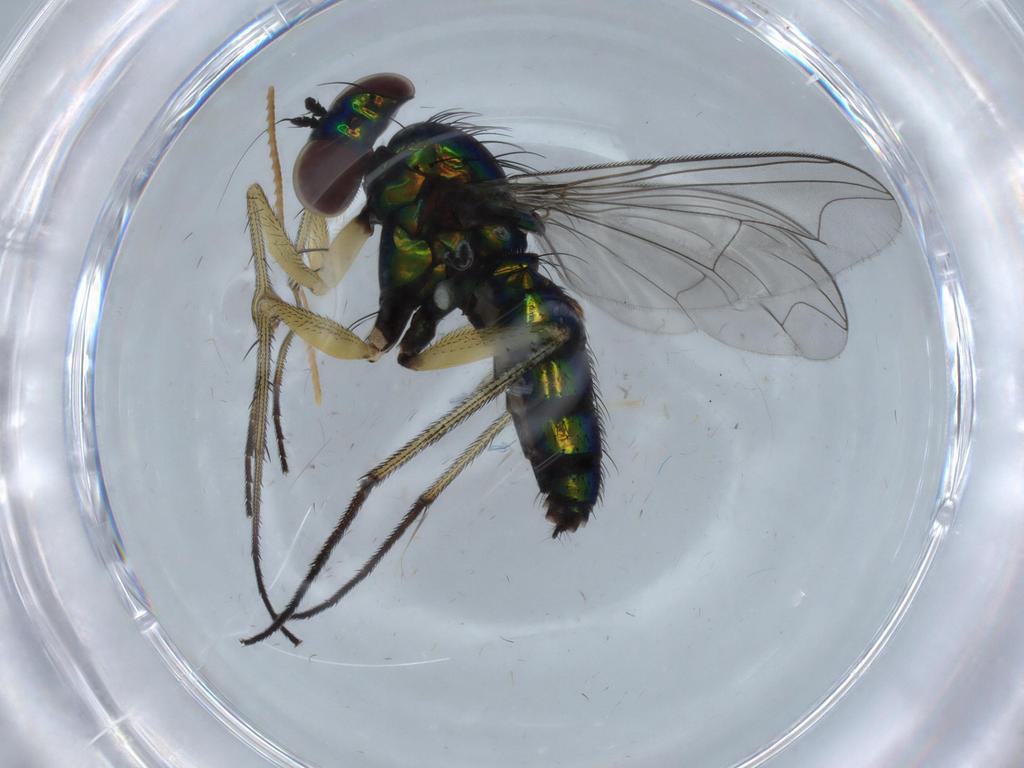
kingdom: Animalia
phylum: Arthropoda
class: Insecta
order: Diptera
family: Dolichopodidae
